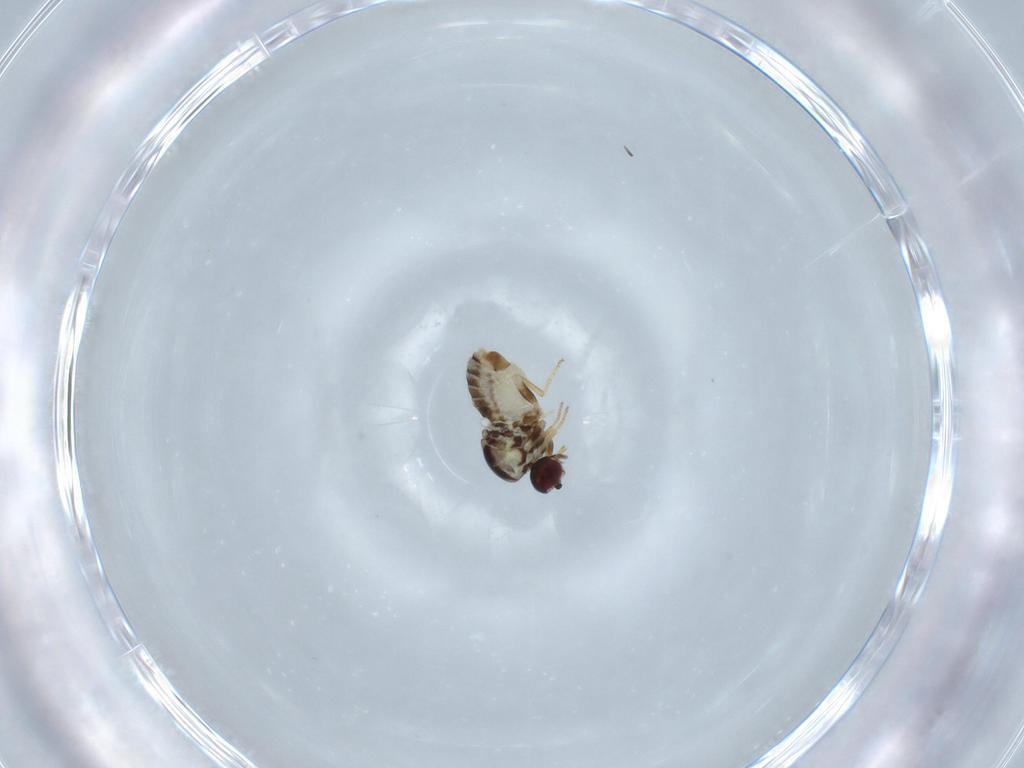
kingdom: Animalia
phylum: Arthropoda
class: Insecta
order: Diptera
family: Bombyliidae
